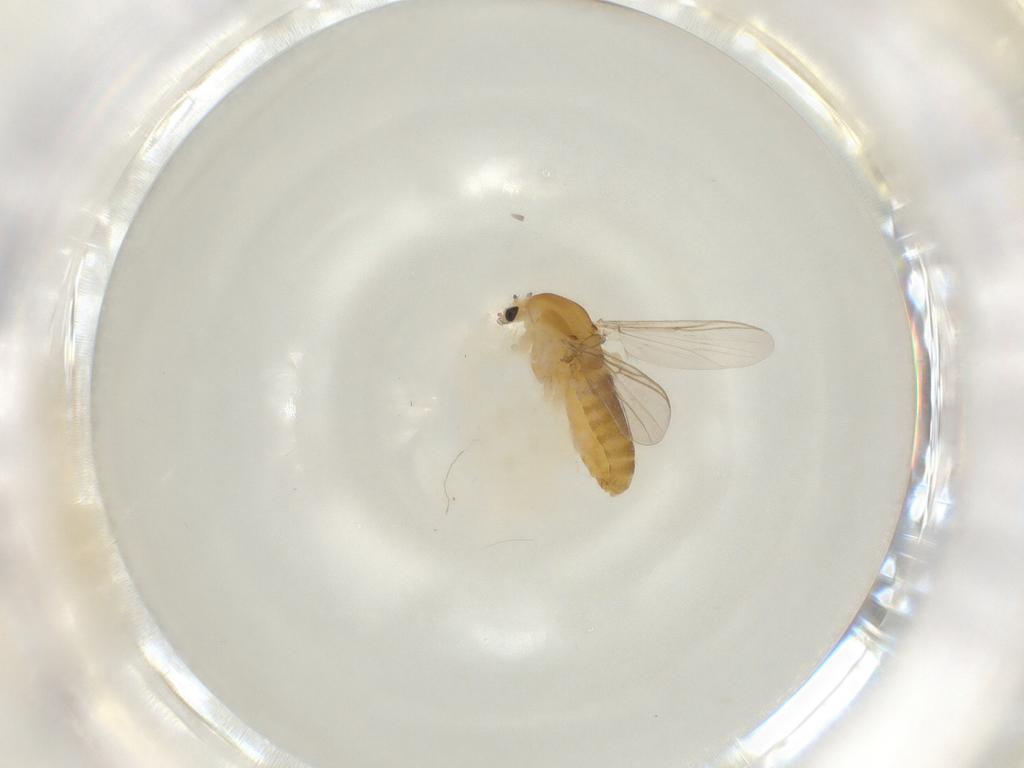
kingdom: Animalia
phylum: Arthropoda
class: Insecta
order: Diptera
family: Chironomidae
